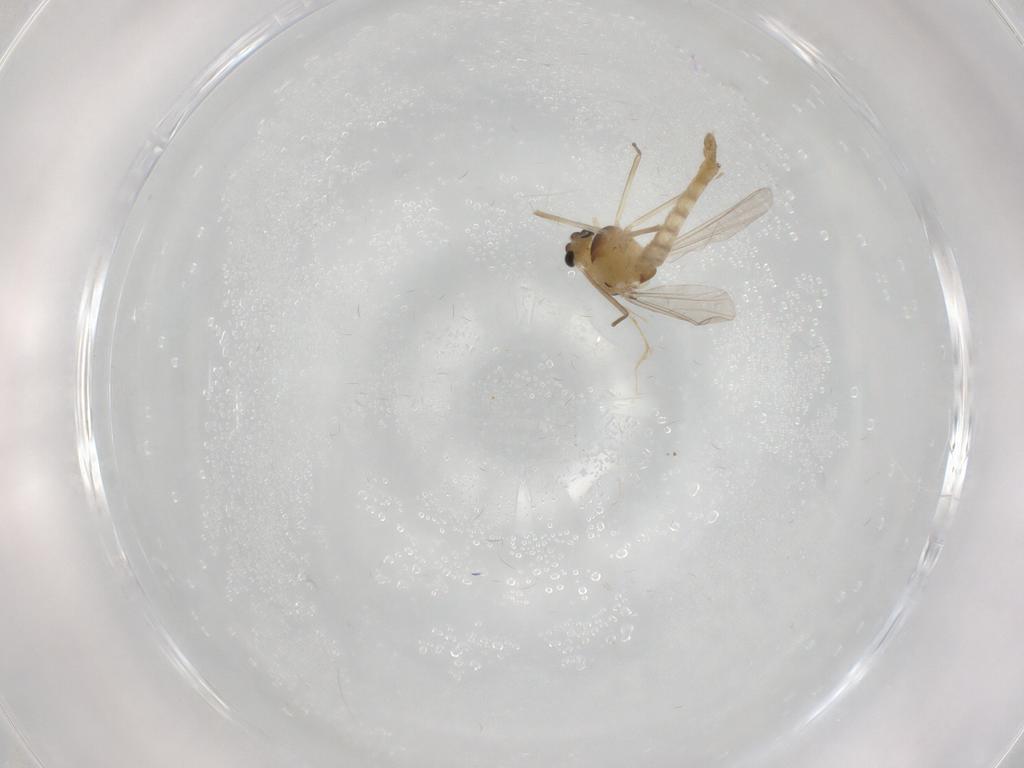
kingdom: Animalia
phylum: Arthropoda
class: Insecta
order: Diptera
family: Chironomidae
